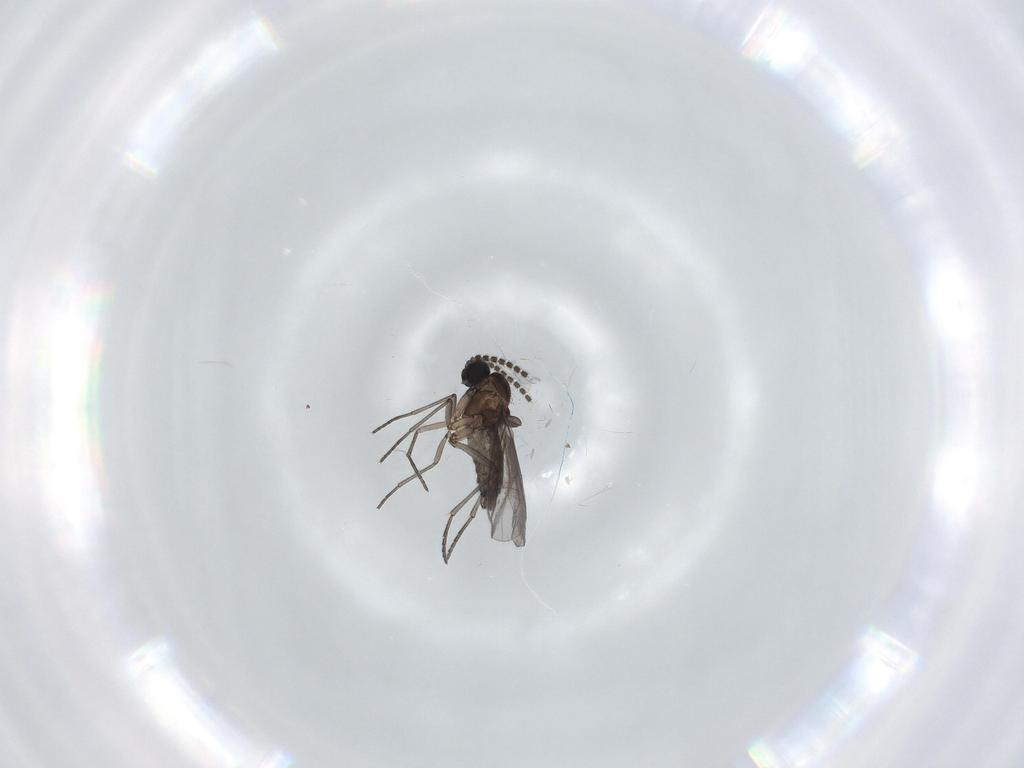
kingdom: Animalia
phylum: Arthropoda
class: Insecta
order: Diptera
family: Sciaridae
